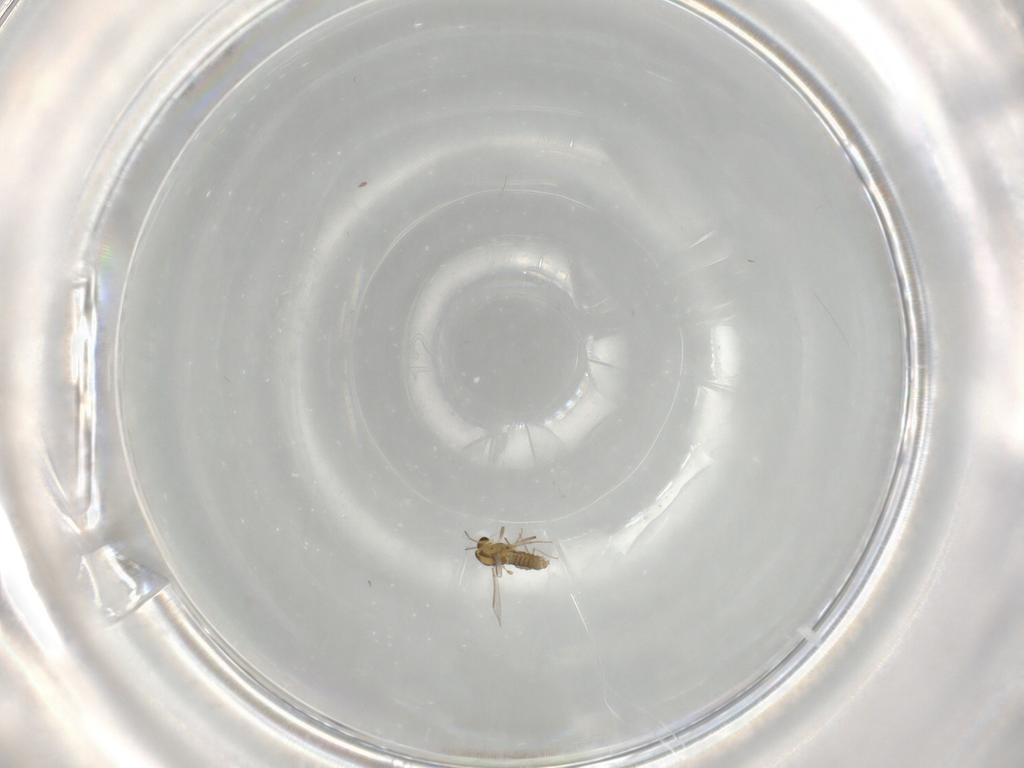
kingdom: Animalia
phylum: Arthropoda
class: Insecta
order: Diptera
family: Chironomidae
